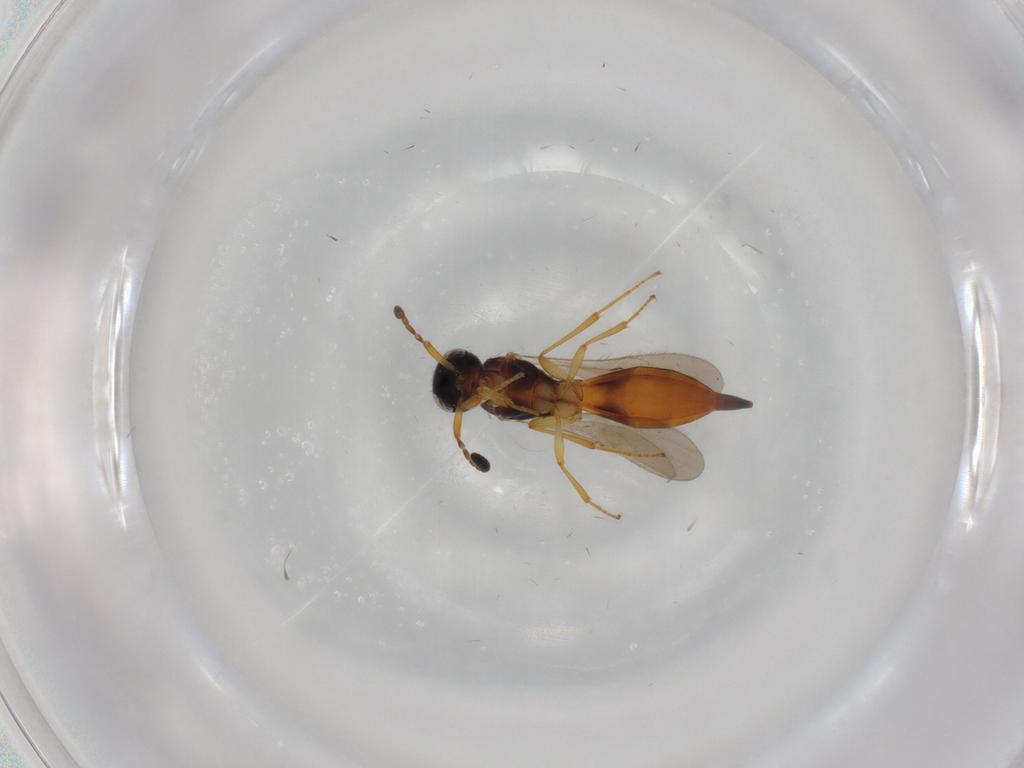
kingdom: Animalia
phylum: Arthropoda
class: Insecta
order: Hymenoptera
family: Scelionidae
